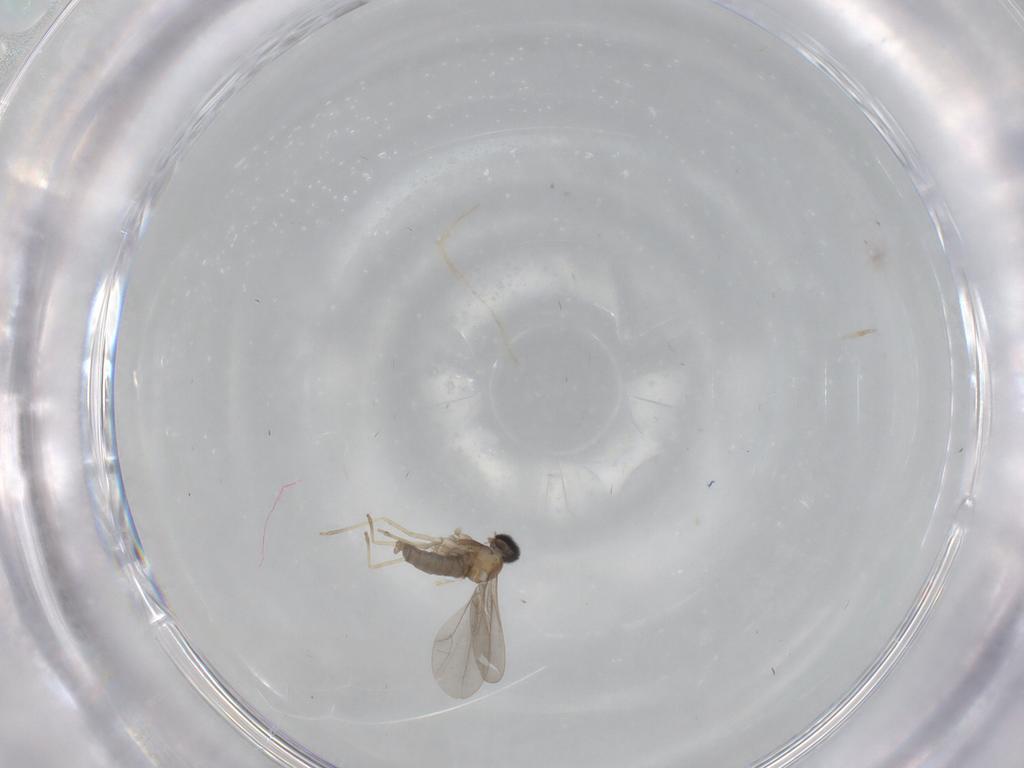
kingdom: Animalia
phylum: Arthropoda
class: Insecta
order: Diptera
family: Cecidomyiidae
